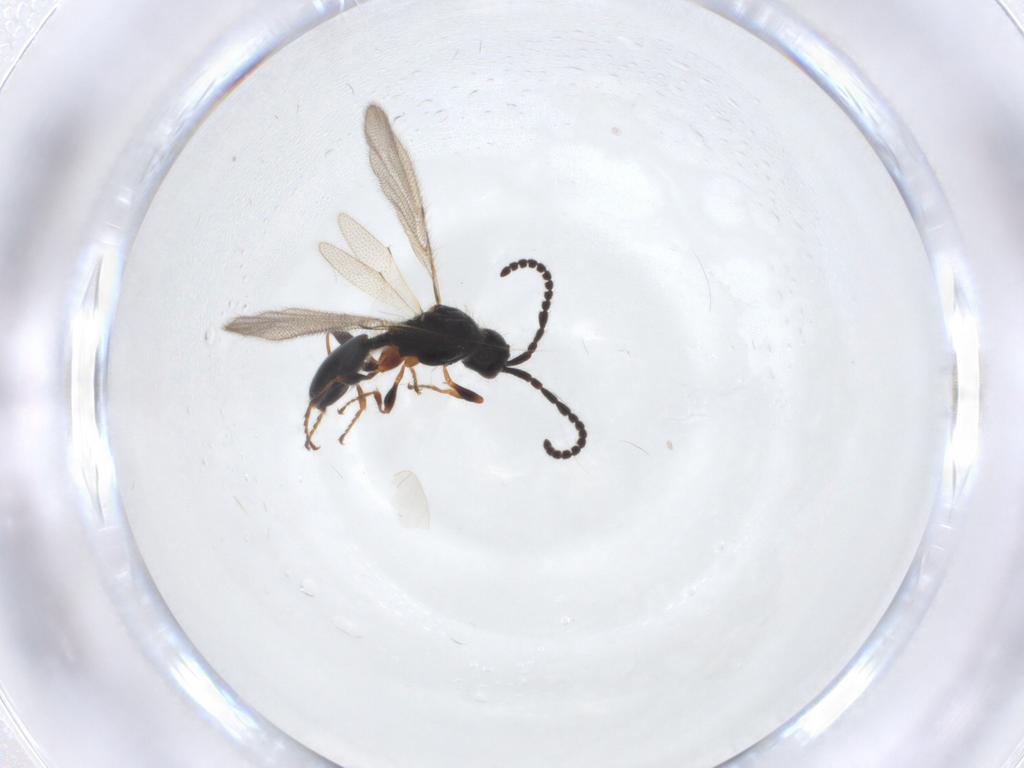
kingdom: Animalia
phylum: Arthropoda
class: Insecta
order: Hymenoptera
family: Diapriidae
